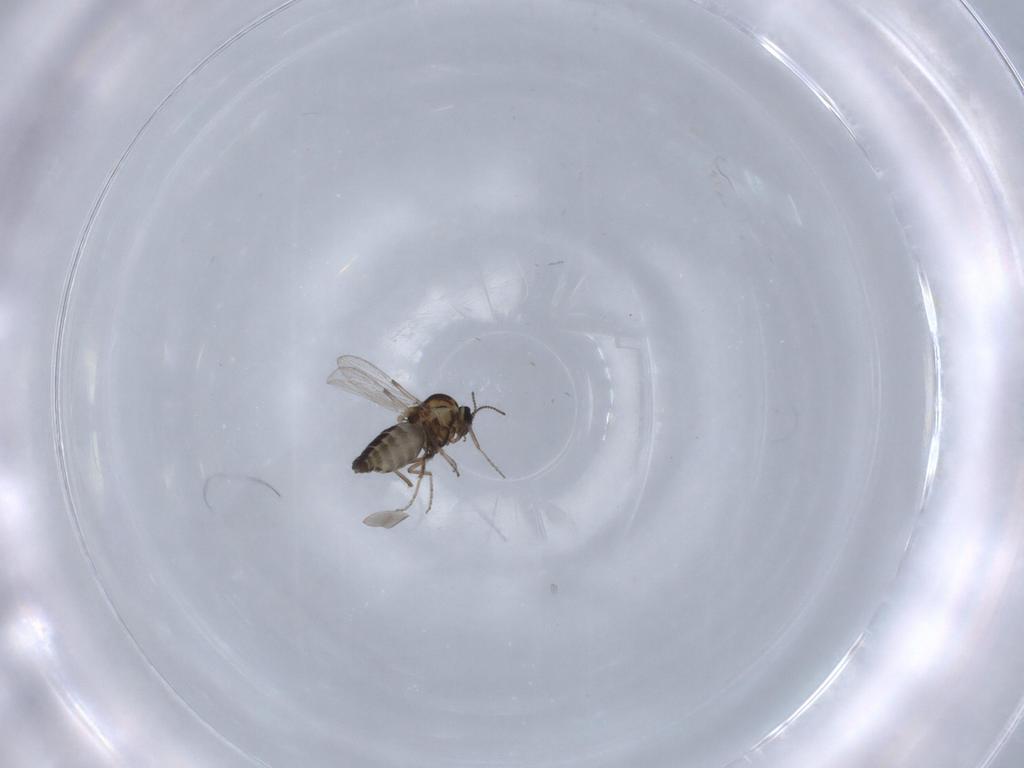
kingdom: Animalia
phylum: Arthropoda
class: Insecta
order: Diptera
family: Ceratopogonidae
